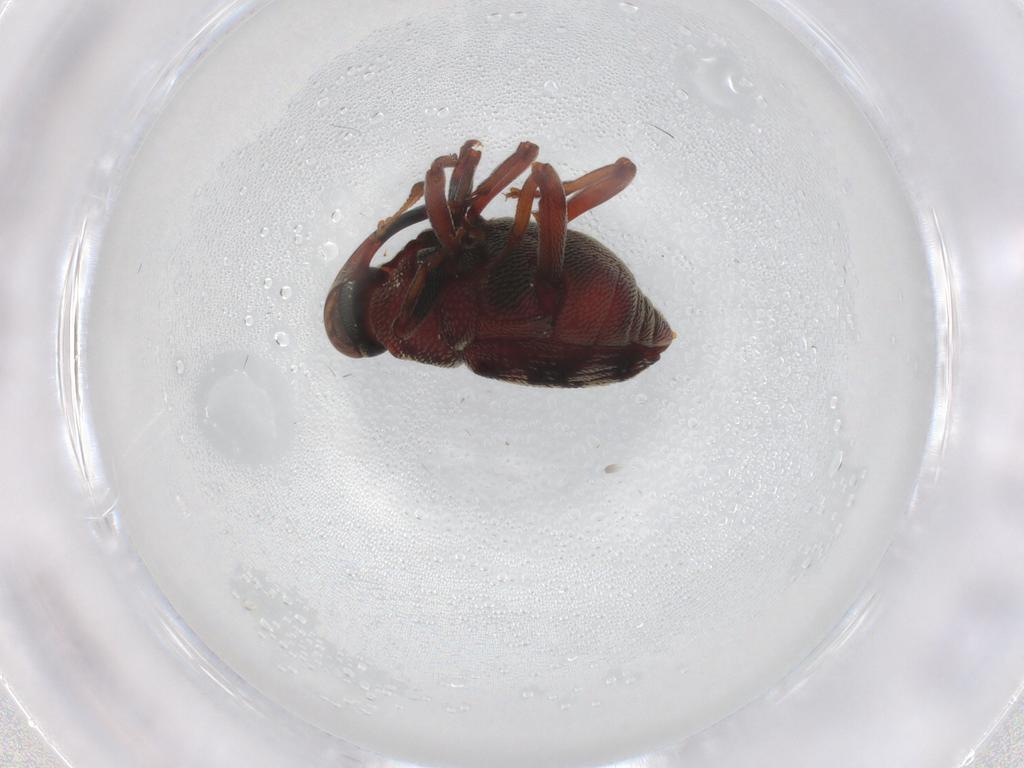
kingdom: Animalia
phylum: Arthropoda
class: Insecta
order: Coleoptera
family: Curculionidae
